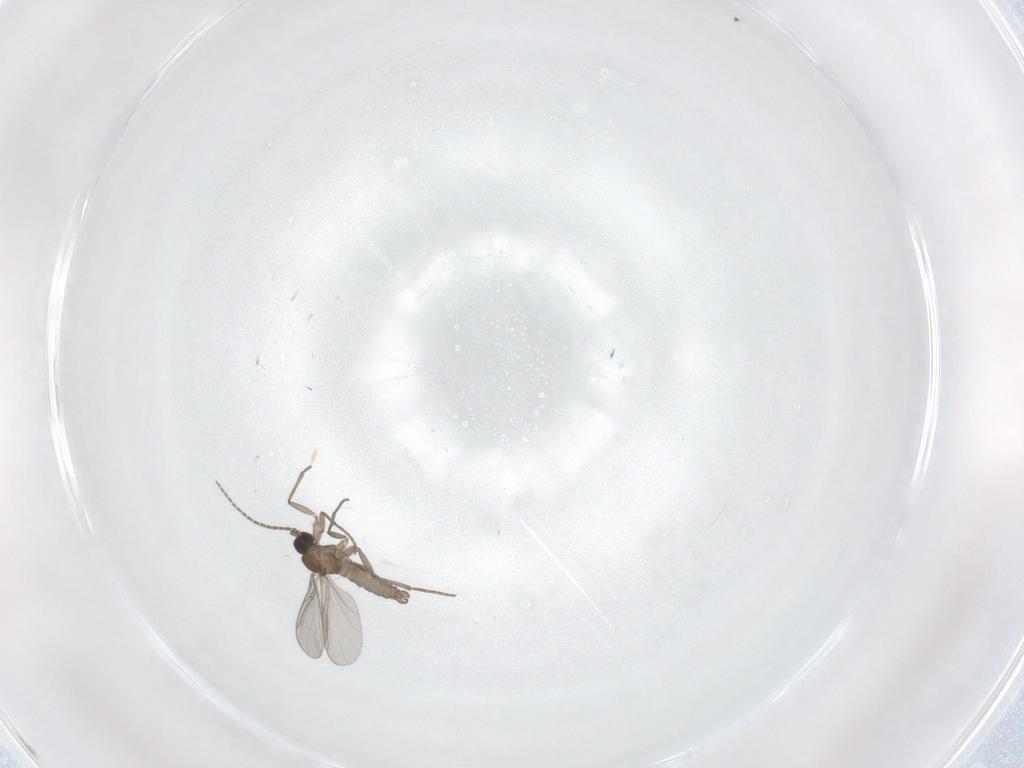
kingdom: Animalia
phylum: Arthropoda
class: Insecta
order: Diptera
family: Sciaridae
